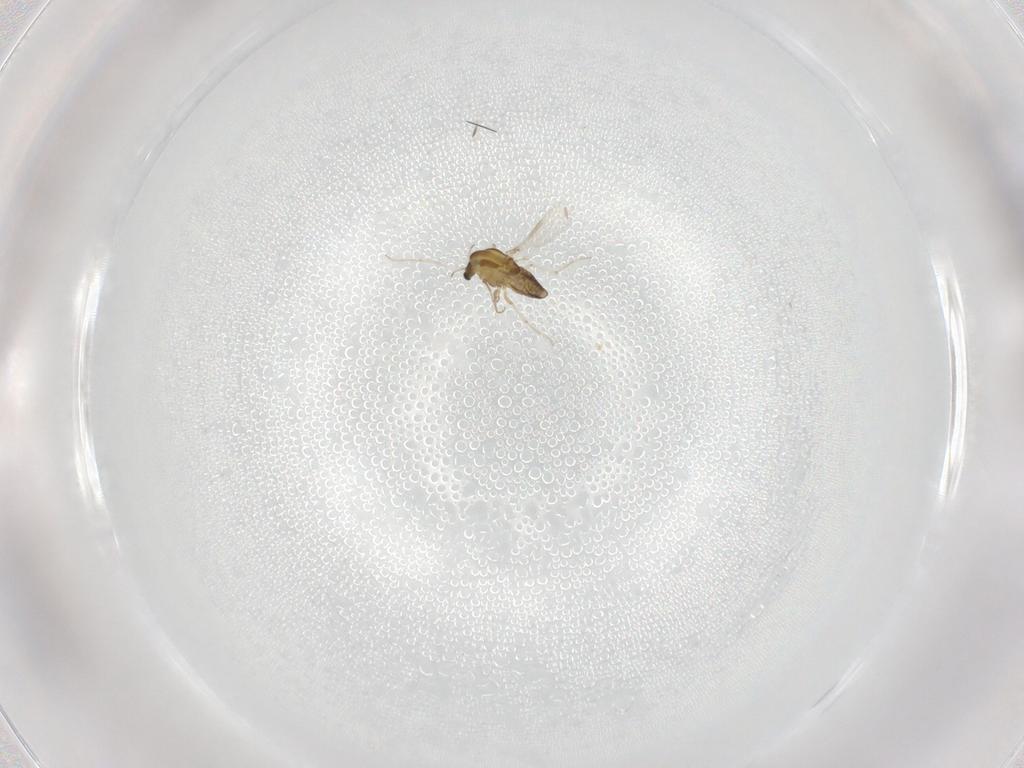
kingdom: Animalia
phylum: Arthropoda
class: Insecta
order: Diptera
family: Chironomidae
